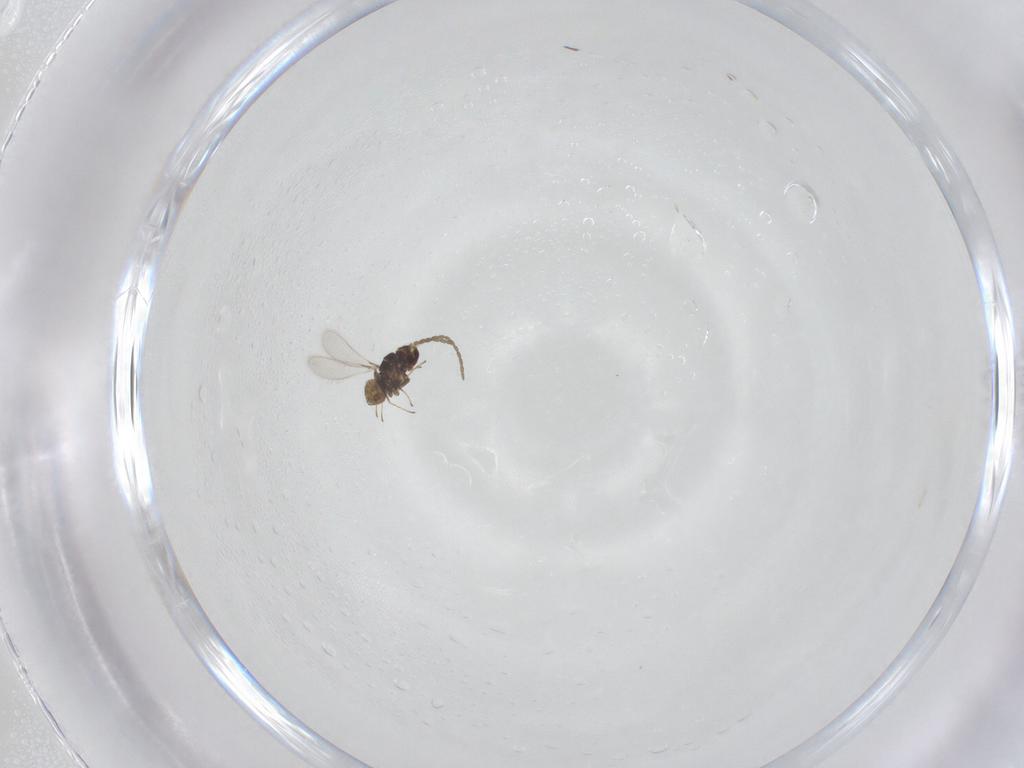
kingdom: Animalia
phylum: Arthropoda
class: Insecta
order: Hymenoptera
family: Mymaridae
